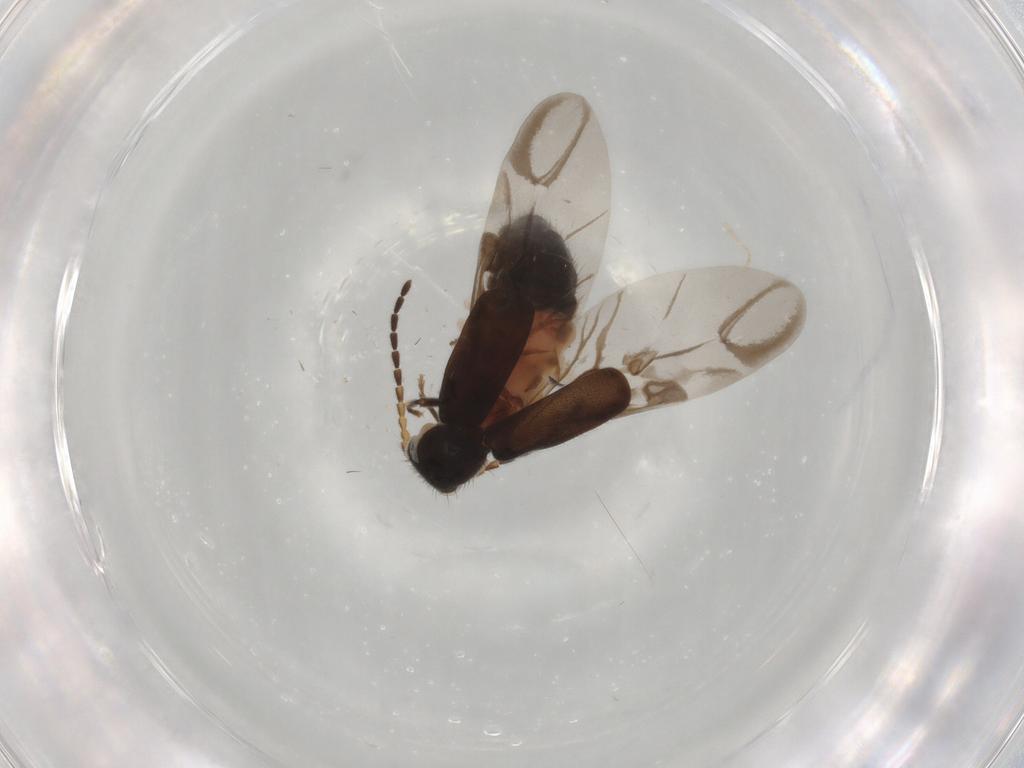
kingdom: Animalia
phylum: Arthropoda
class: Insecta
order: Coleoptera
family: Melyridae
